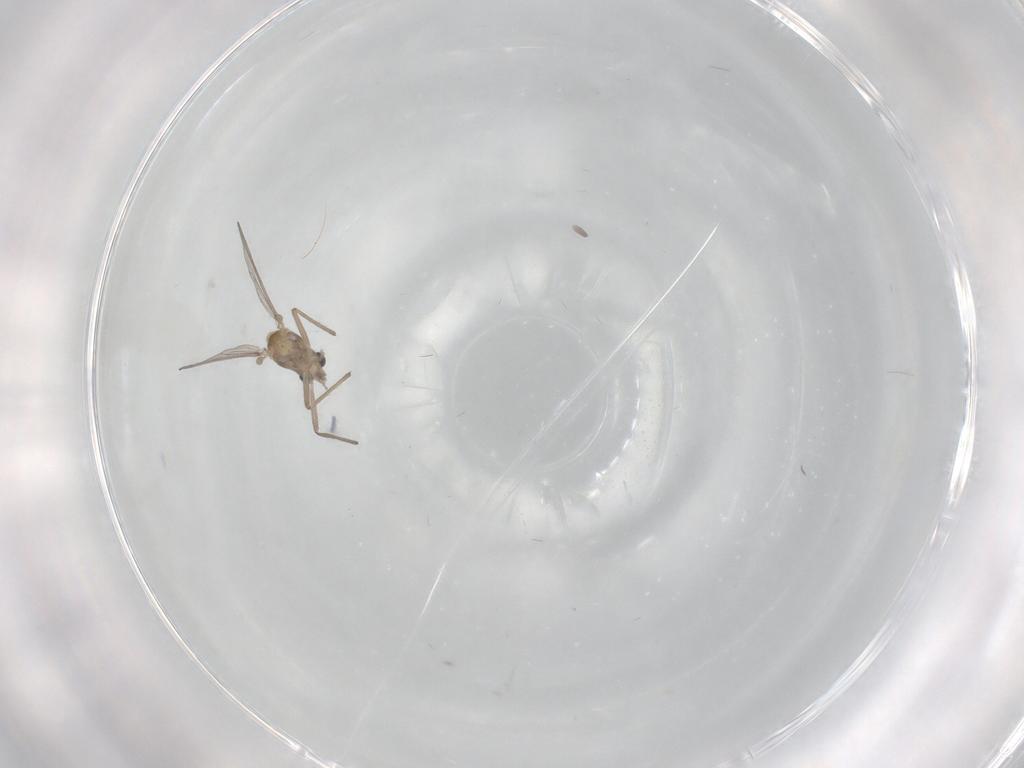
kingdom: Animalia
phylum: Arthropoda
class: Insecta
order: Diptera
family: Chironomidae
